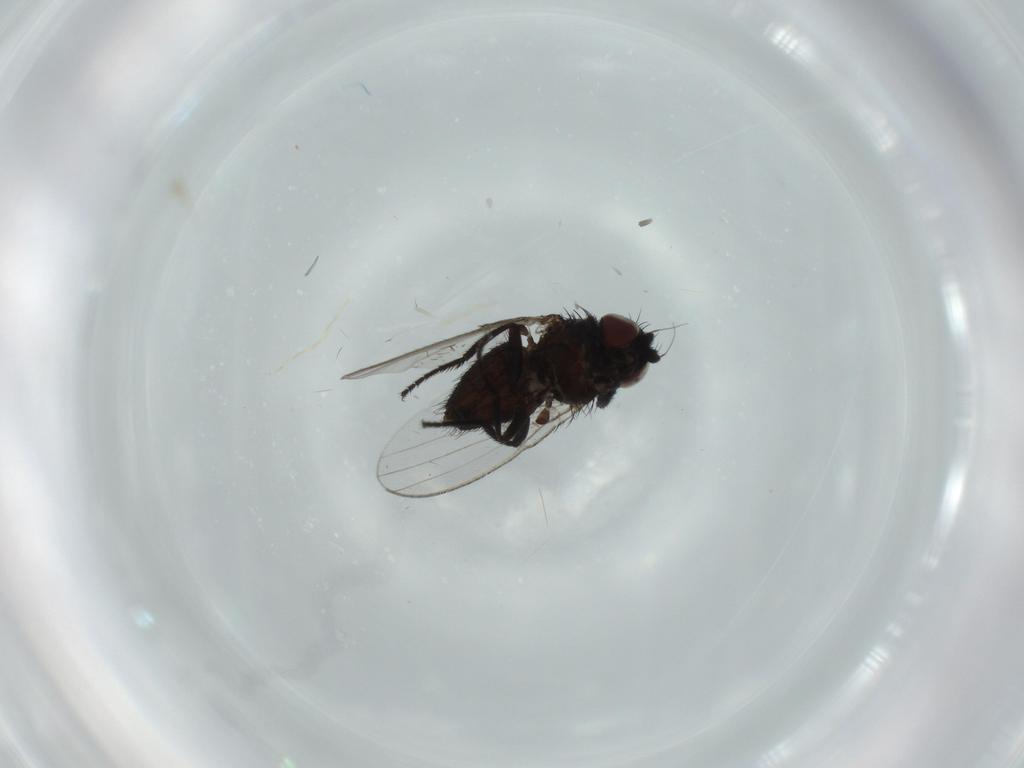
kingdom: Animalia
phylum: Arthropoda
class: Insecta
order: Diptera
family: Milichiidae
